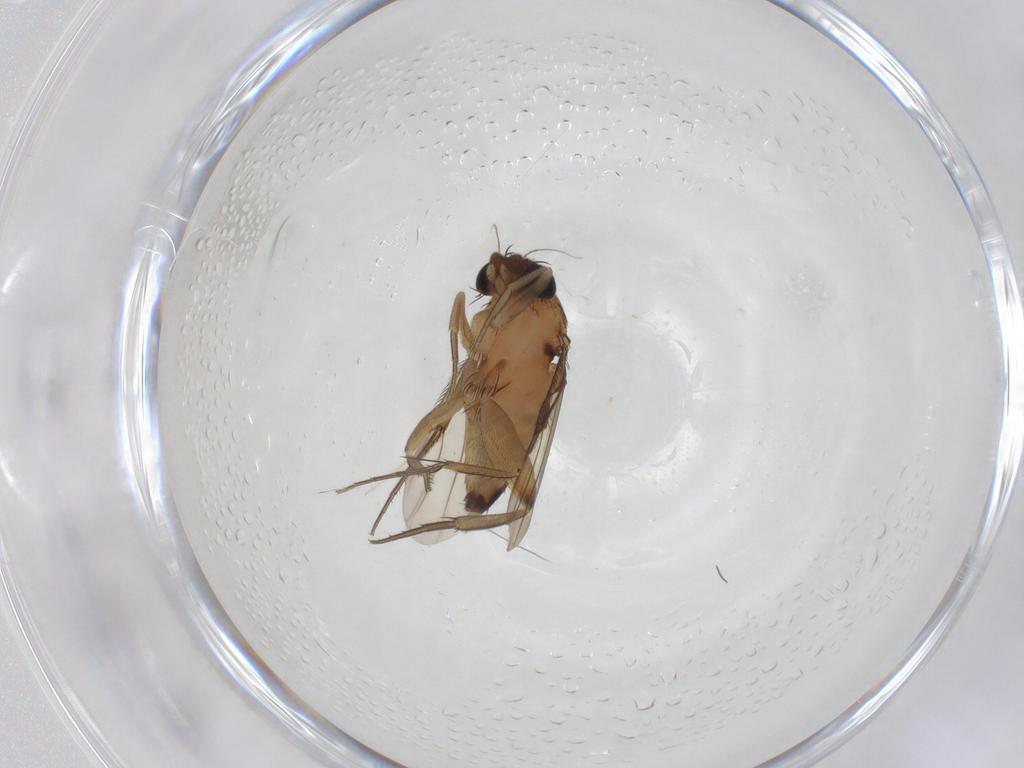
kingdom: Animalia
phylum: Arthropoda
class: Insecta
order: Diptera
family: Phoridae
